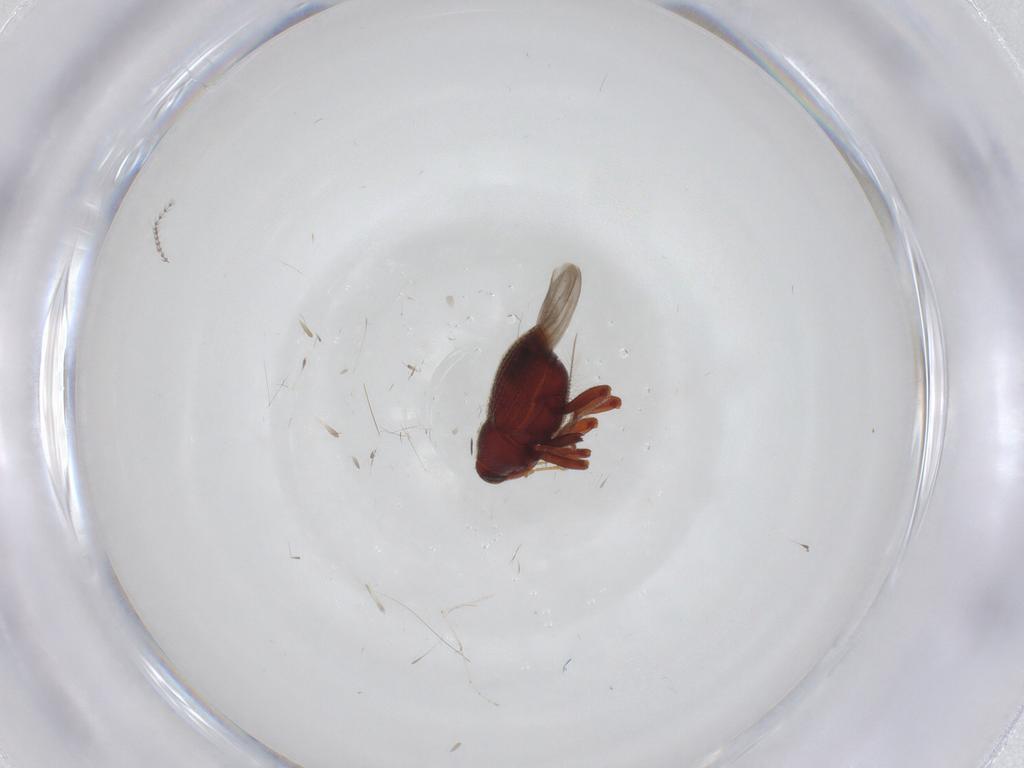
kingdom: Animalia
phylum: Arthropoda
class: Insecta
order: Coleoptera
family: Curculionidae
